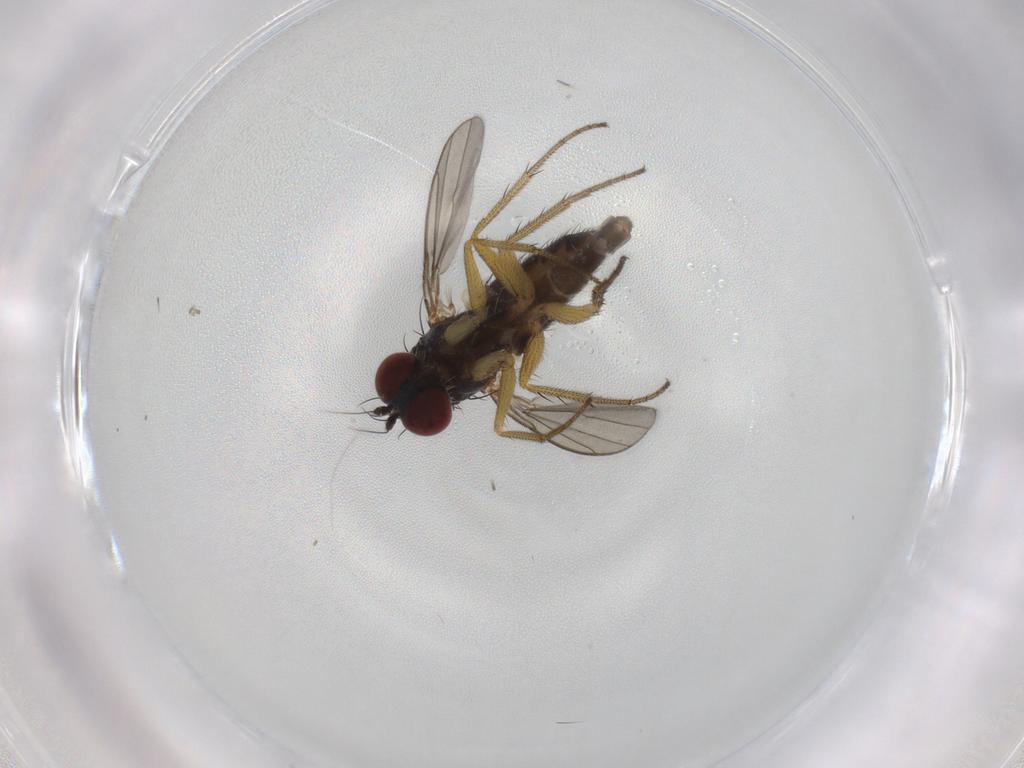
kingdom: Animalia
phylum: Arthropoda
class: Insecta
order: Diptera
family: Dolichopodidae
